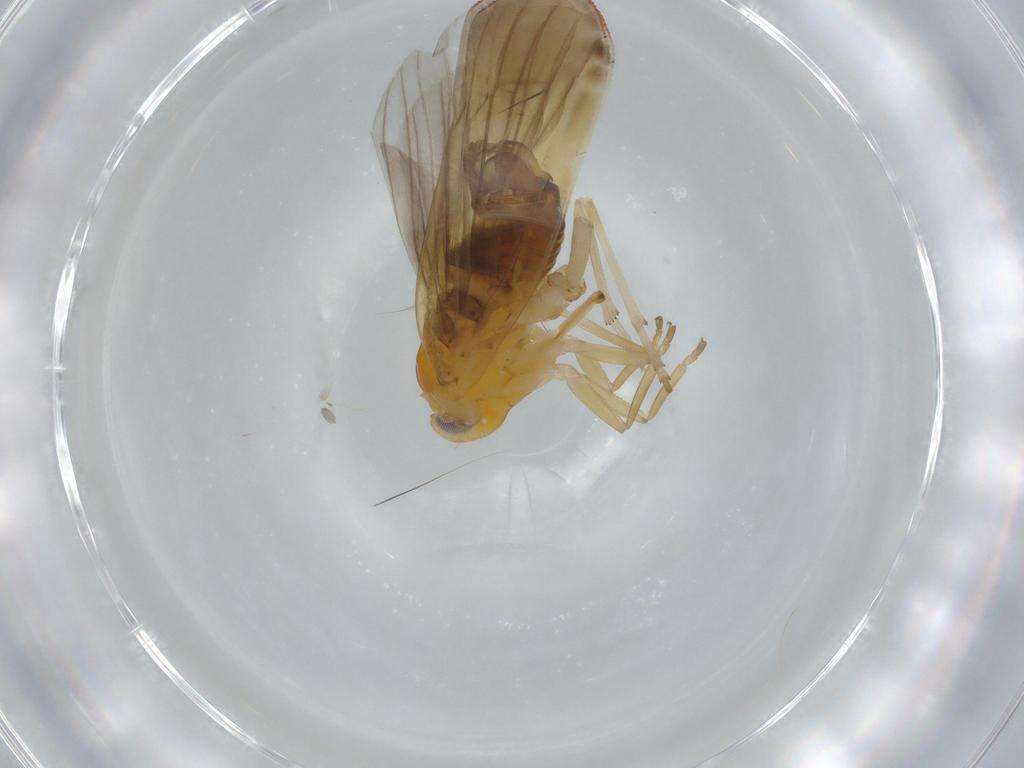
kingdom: Animalia
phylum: Arthropoda
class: Insecta
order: Hemiptera
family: Derbidae
